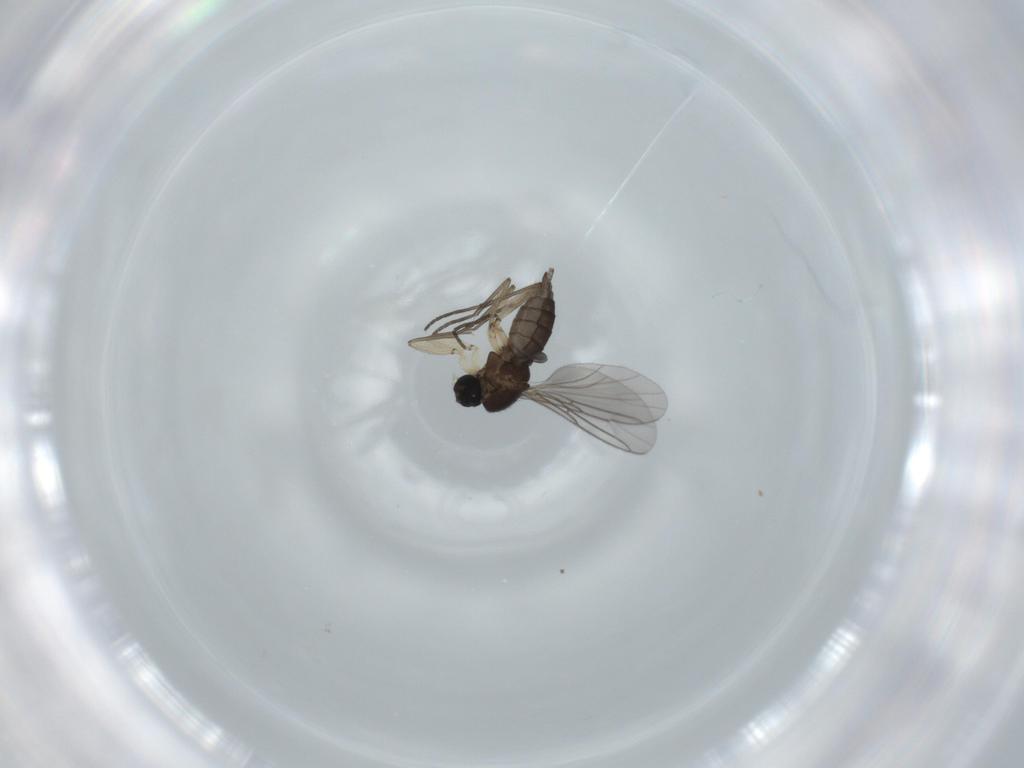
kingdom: Animalia
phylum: Arthropoda
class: Insecta
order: Diptera
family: Sciaridae
